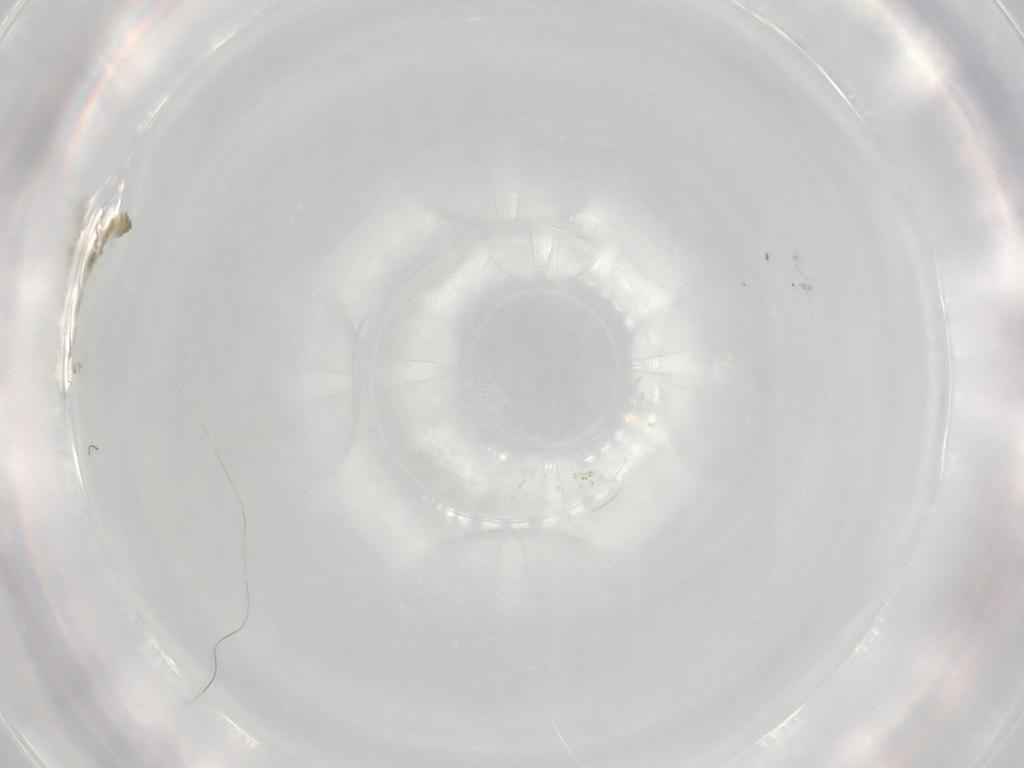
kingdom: Animalia
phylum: Arthropoda
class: Insecta
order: Diptera
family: Chironomidae
